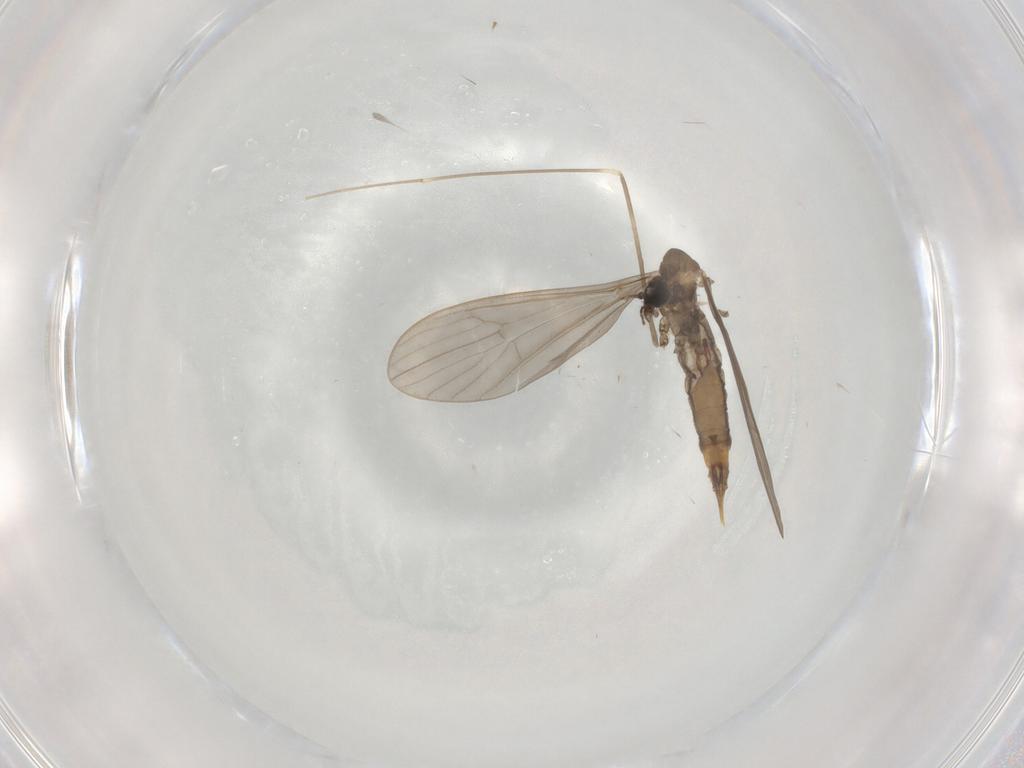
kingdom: Animalia
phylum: Arthropoda
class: Insecta
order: Diptera
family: Limoniidae
